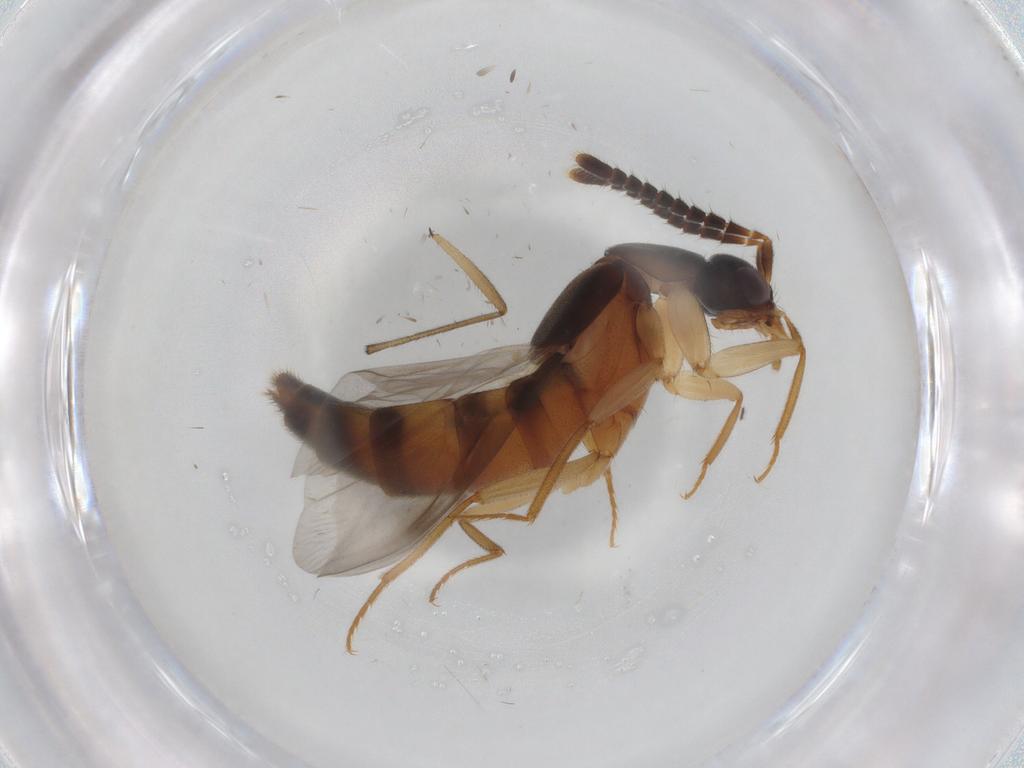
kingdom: Animalia
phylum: Arthropoda
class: Insecta
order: Coleoptera
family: Staphylinidae
